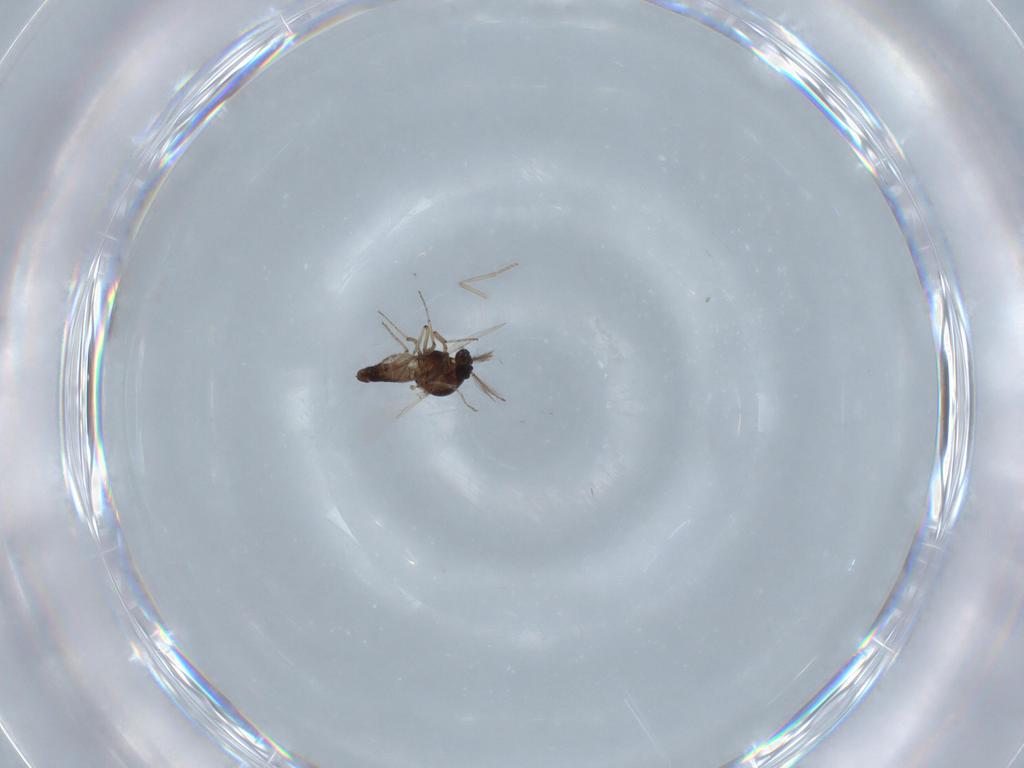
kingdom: Animalia
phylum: Arthropoda
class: Insecta
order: Diptera
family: Ceratopogonidae
